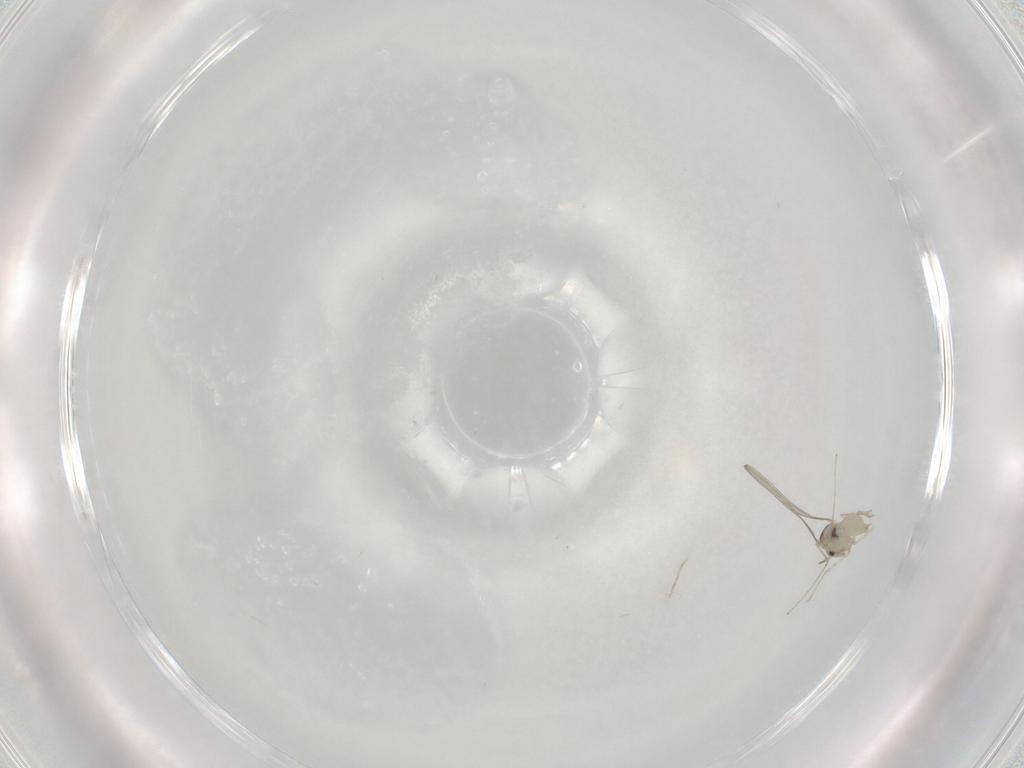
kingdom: Animalia
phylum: Arthropoda
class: Insecta
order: Diptera
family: Cecidomyiidae
